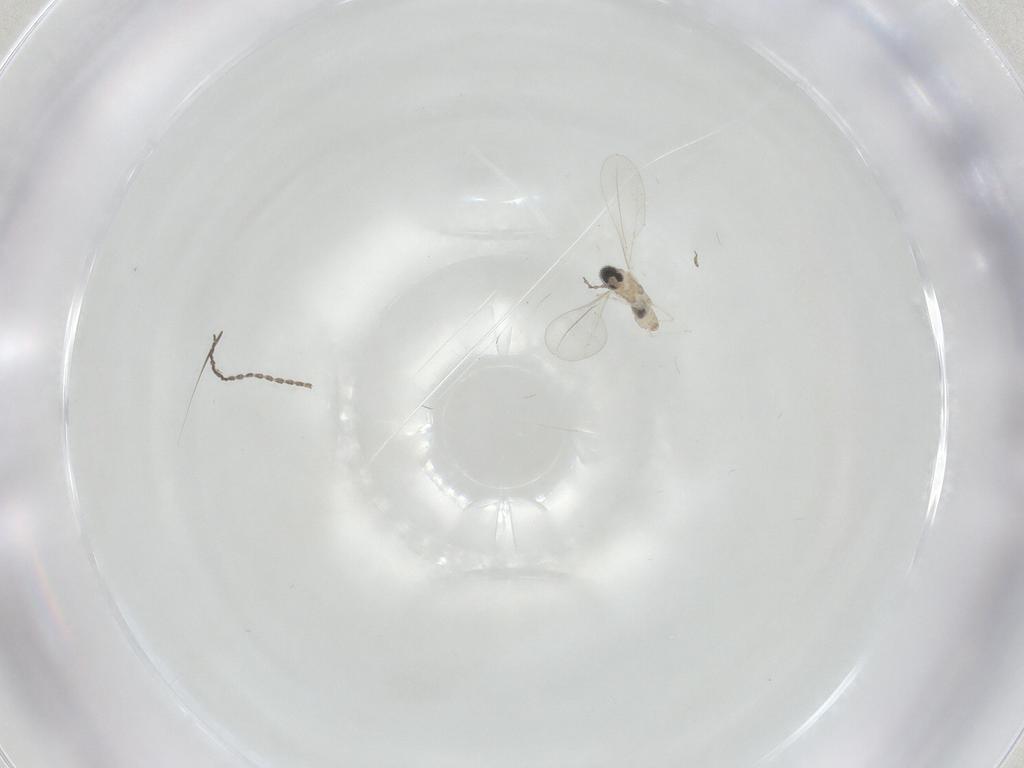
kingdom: Animalia
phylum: Arthropoda
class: Insecta
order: Diptera
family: Cecidomyiidae
